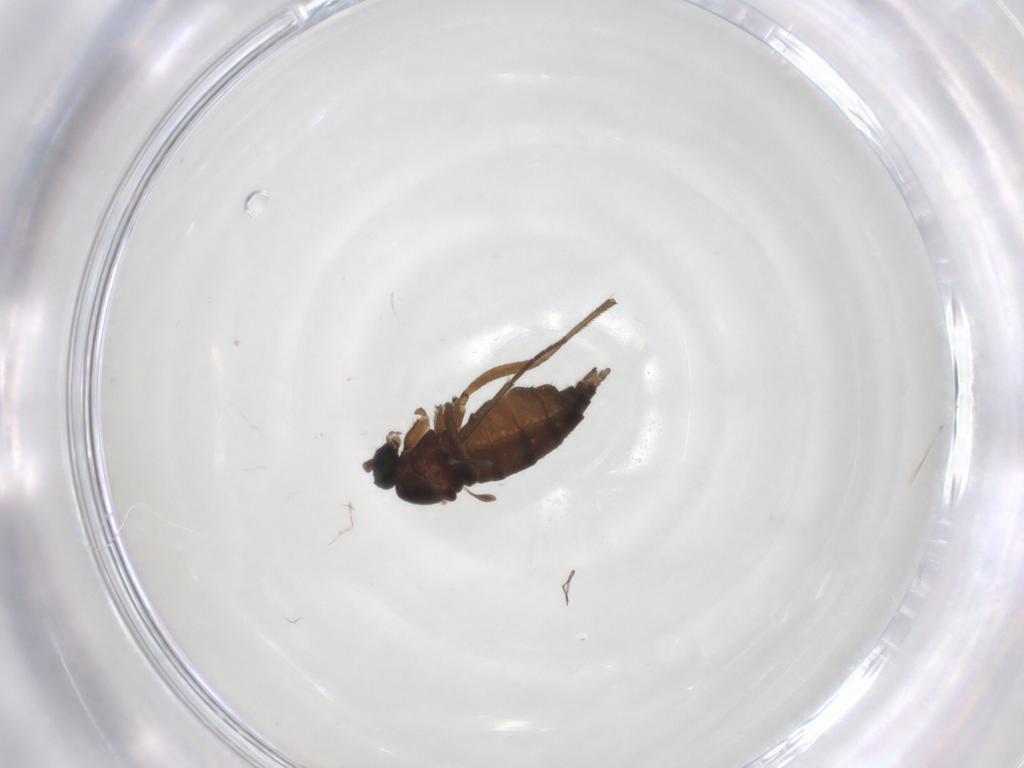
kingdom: Animalia
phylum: Arthropoda
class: Insecta
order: Diptera
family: Sciaridae
